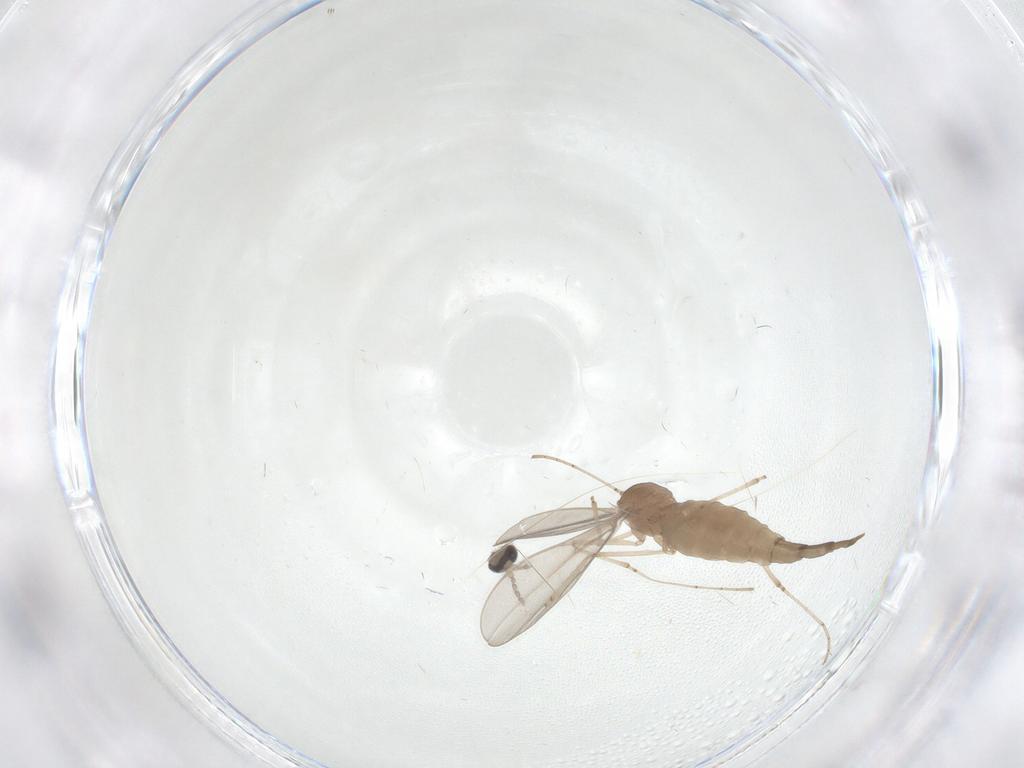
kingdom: Animalia
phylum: Arthropoda
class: Insecta
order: Diptera
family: Cecidomyiidae
